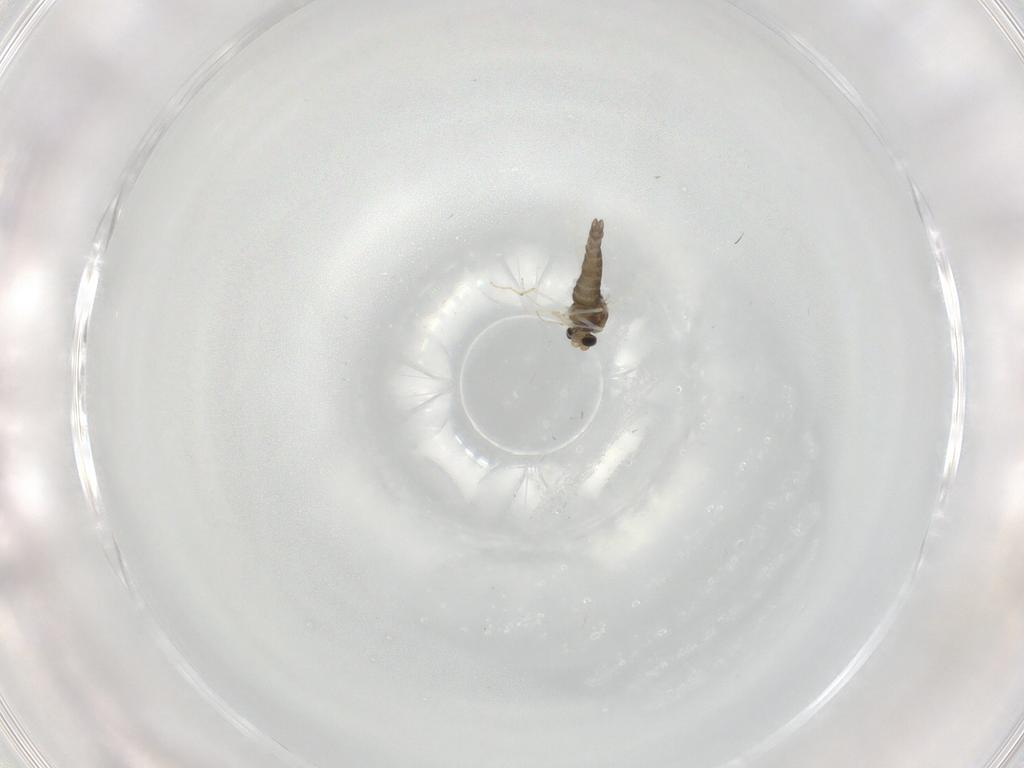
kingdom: Animalia
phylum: Arthropoda
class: Insecta
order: Diptera
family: Chironomidae
